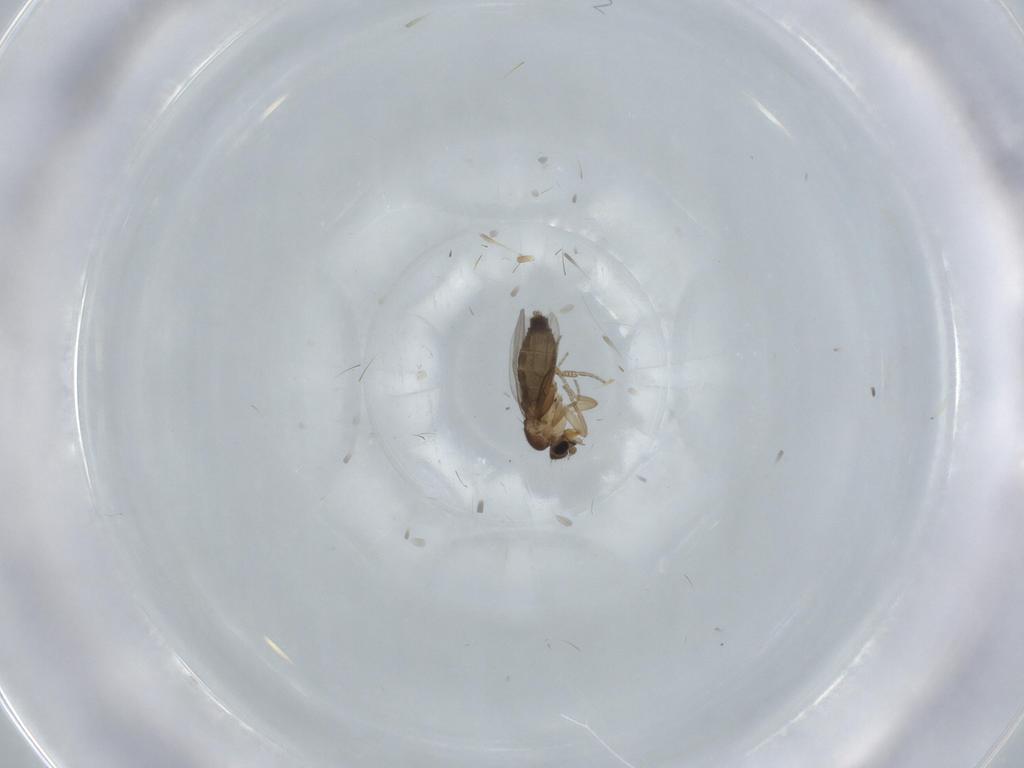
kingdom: Animalia
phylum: Arthropoda
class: Insecta
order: Diptera
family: Phoridae
